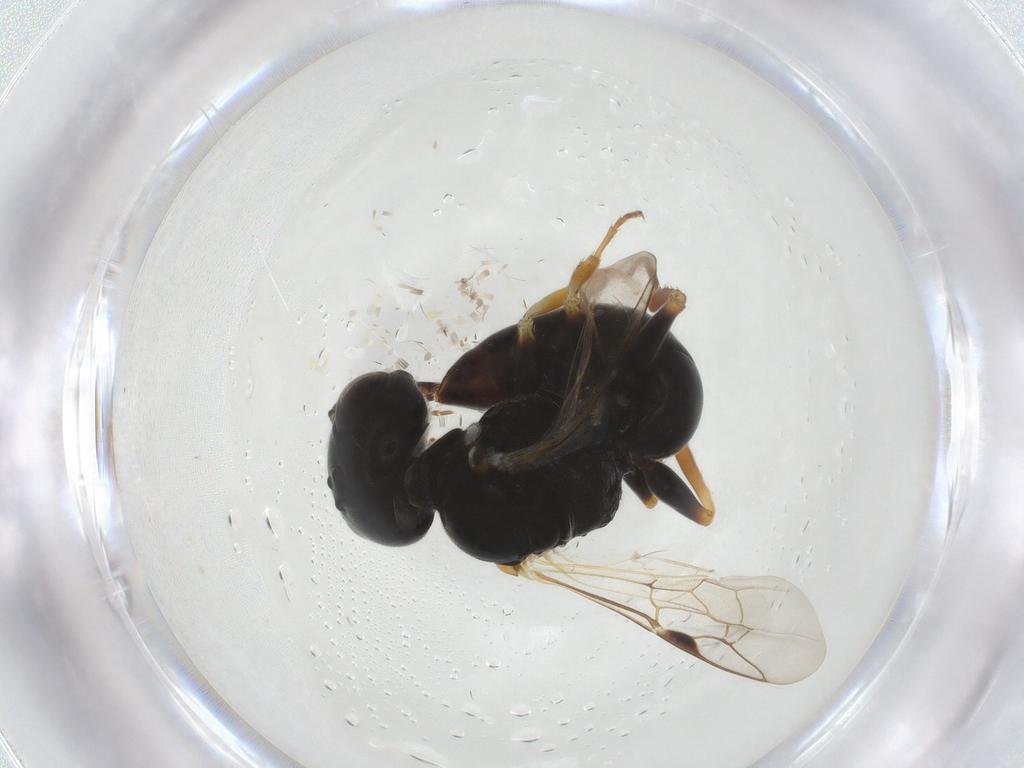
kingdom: Animalia
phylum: Arthropoda
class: Insecta
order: Hymenoptera
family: Pemphredonidae
